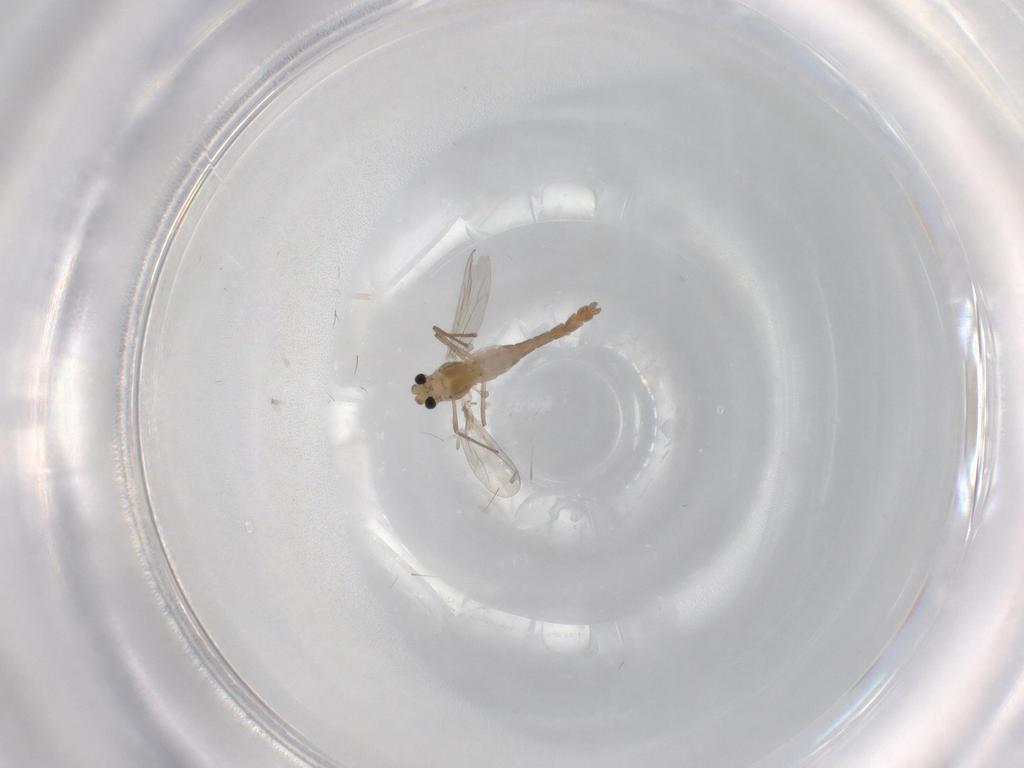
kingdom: Animalia
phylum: Arthropoda
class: Insecta
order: Diptera
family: Chironomidae
